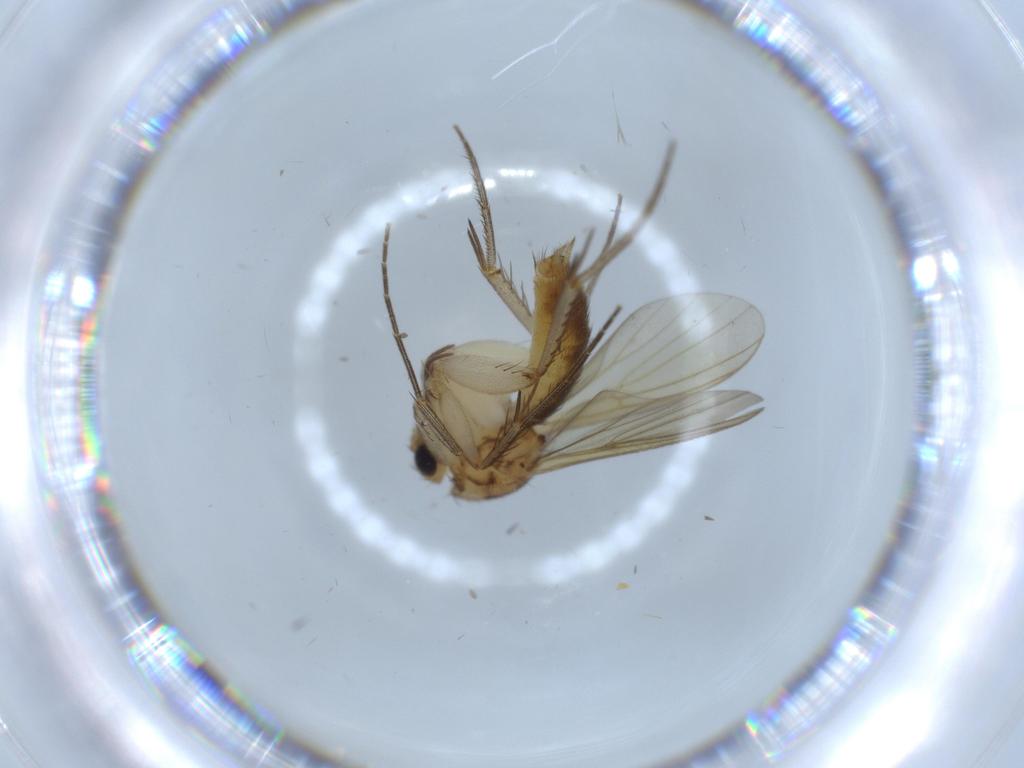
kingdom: Animalia
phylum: Arthropoda
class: Insecta
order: Diptera
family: Mycetophilidae
